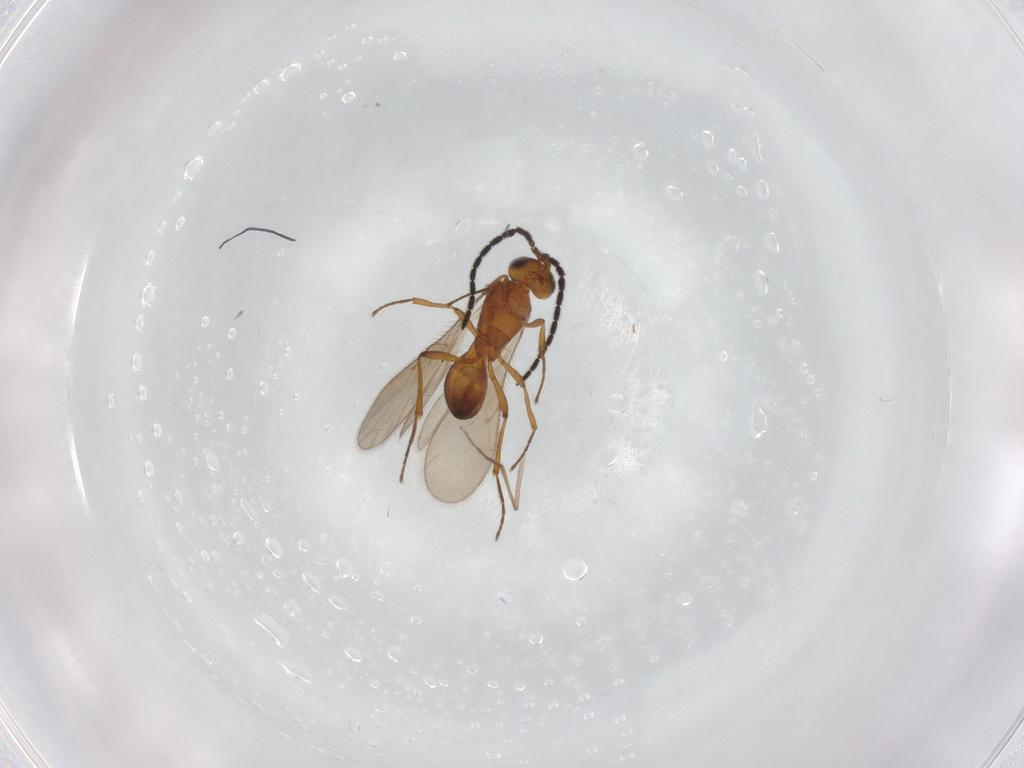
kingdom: Animalia
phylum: Arthropoda
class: Insecta
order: Hymenoptera
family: Scelionidae
